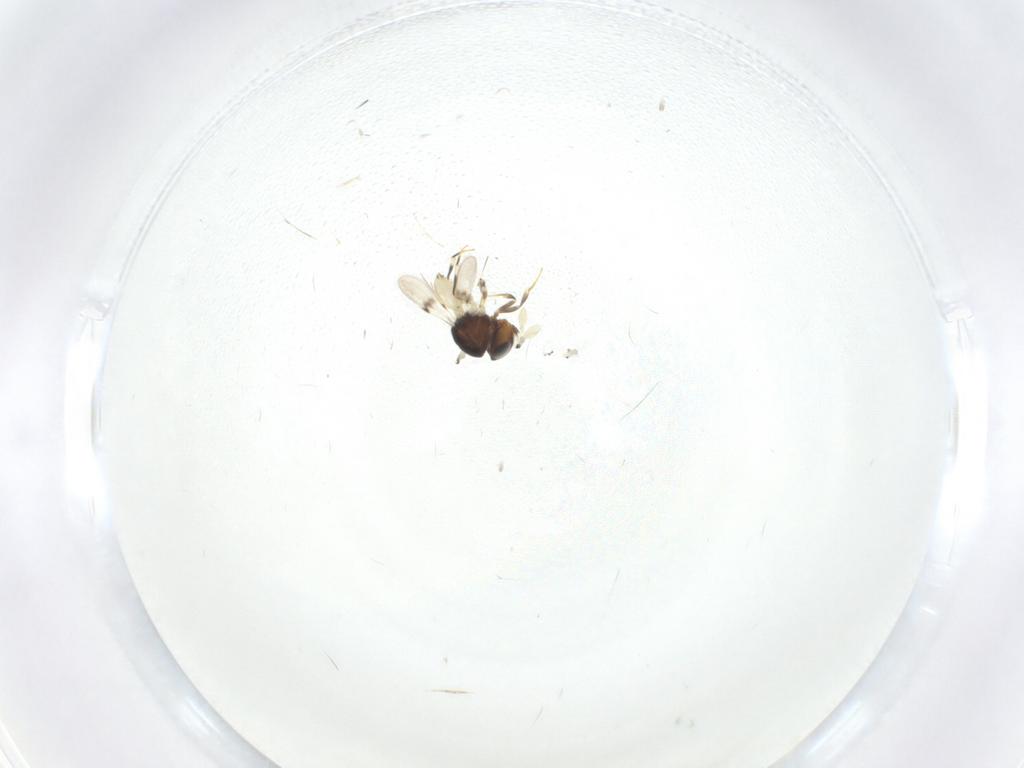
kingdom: Animalia
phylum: Arthropoda
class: Insecta
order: Hymenoptera
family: Scelionidae
